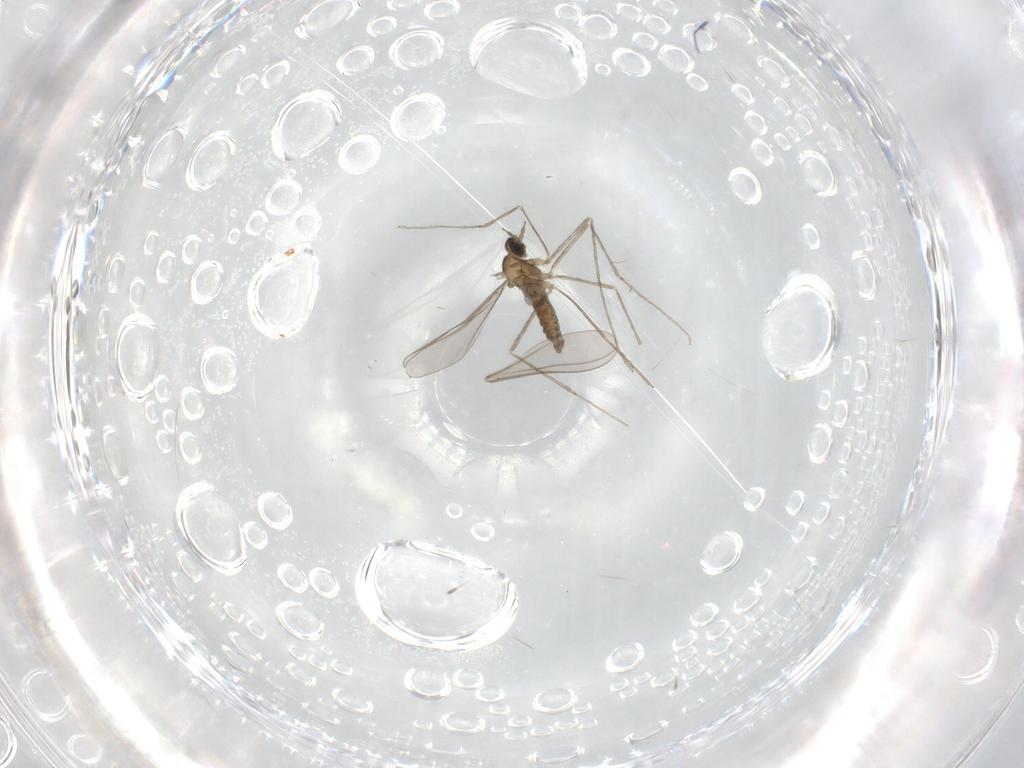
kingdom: Animalia
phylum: Arthropoda
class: Insecta
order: Diptera
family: Cecidomyiidae
